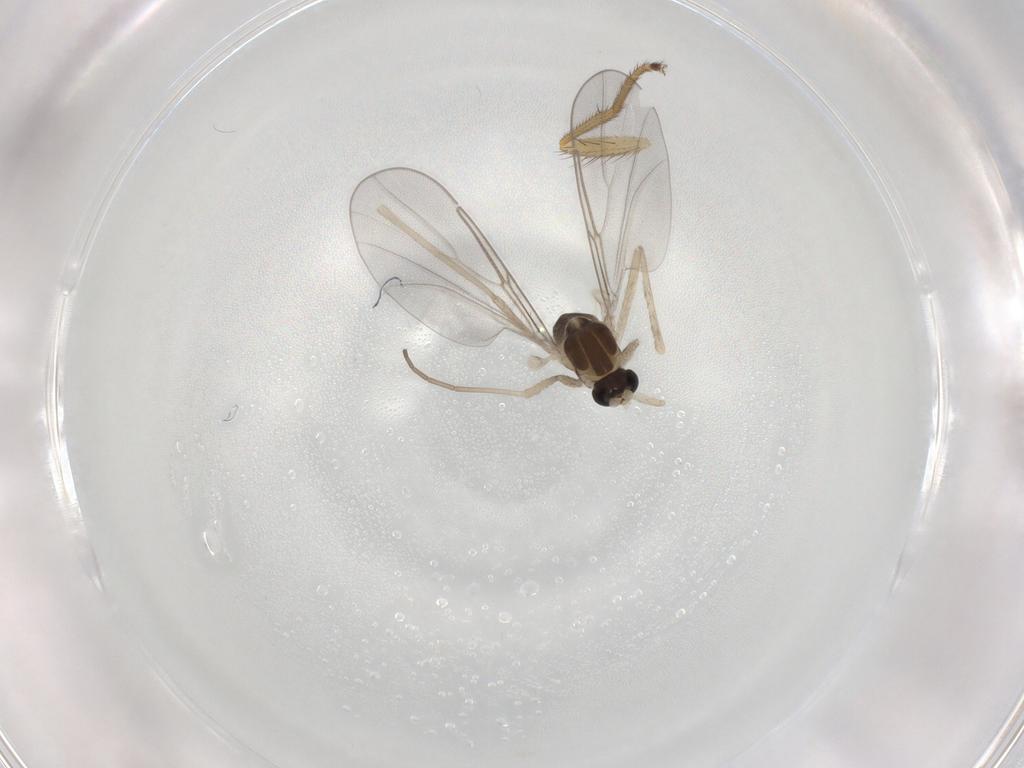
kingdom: Animalia
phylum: Arthropoda
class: Insecta
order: Diptera
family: Cecidomyiidae
